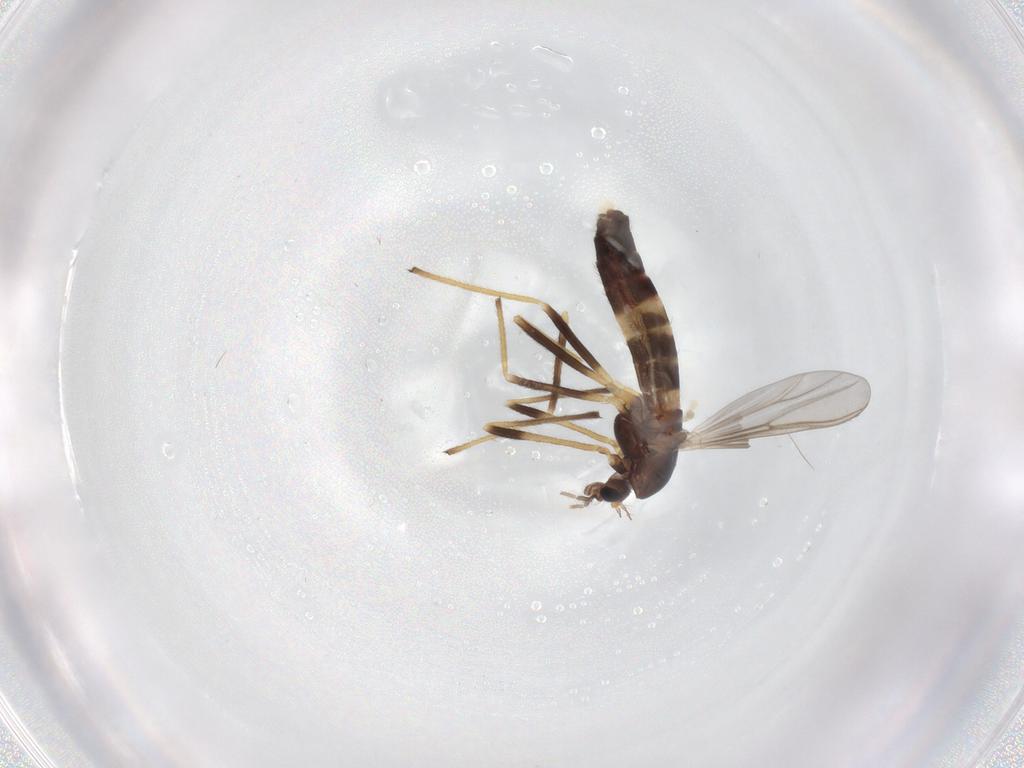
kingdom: Animalia
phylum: Arthropoda
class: Insecta
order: Diptera
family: Chironomidae
